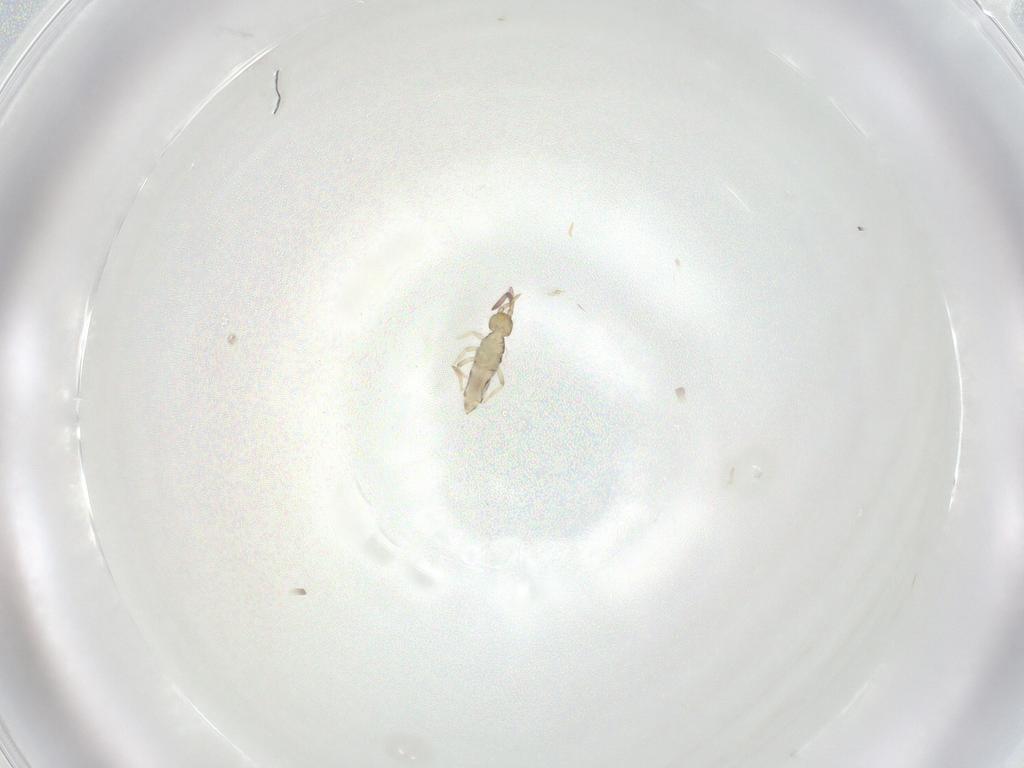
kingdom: Animalia
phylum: Arthropoda
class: Collembola
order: Entomobryomorpha
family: Entomobryidae
